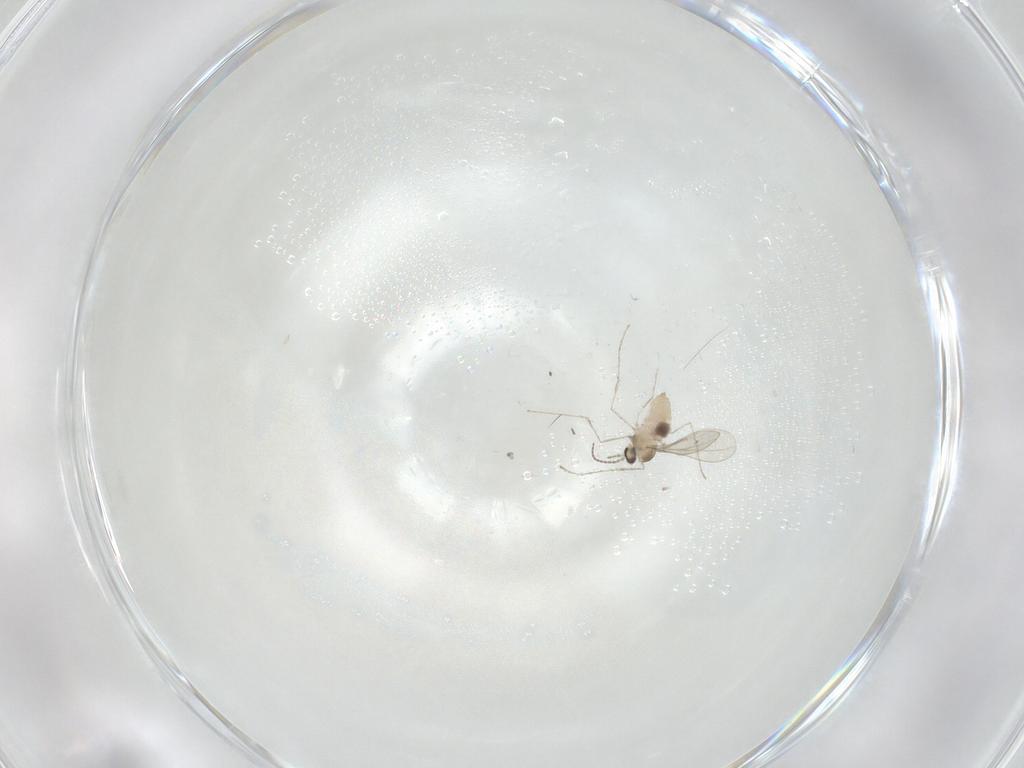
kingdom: Animalia
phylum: Arthropoda
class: Insecta
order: Diptera
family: Cecidomyiidae
